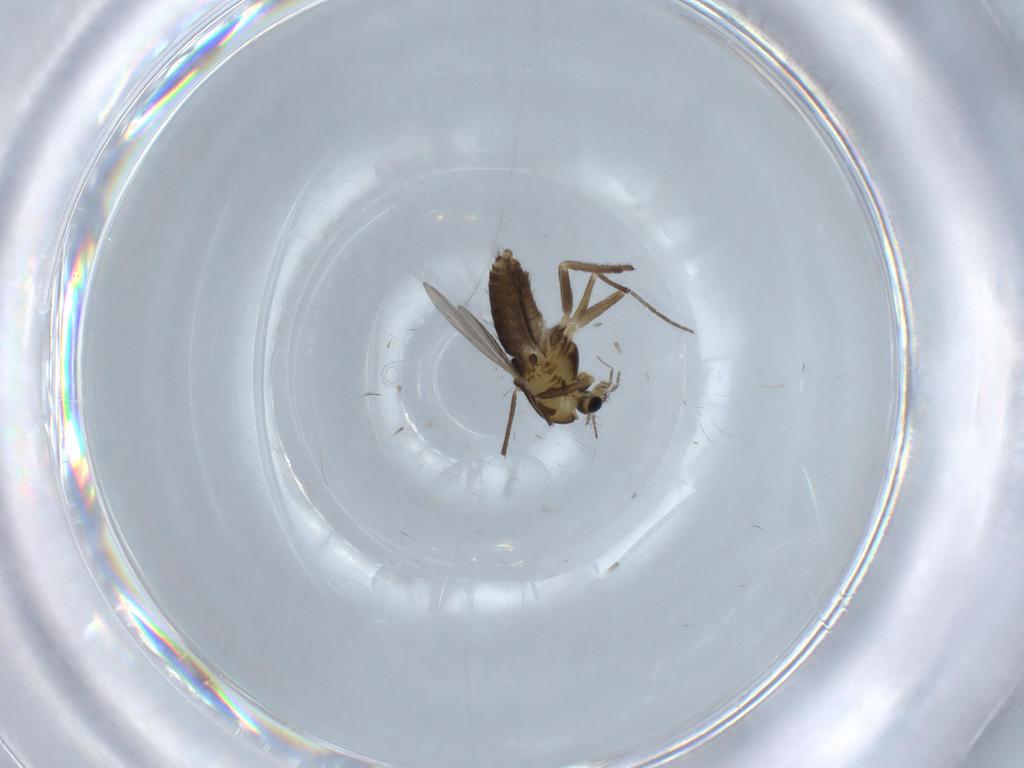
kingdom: Animalia
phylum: Arthropoda
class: Insecta
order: Diptera
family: Chironomidae
